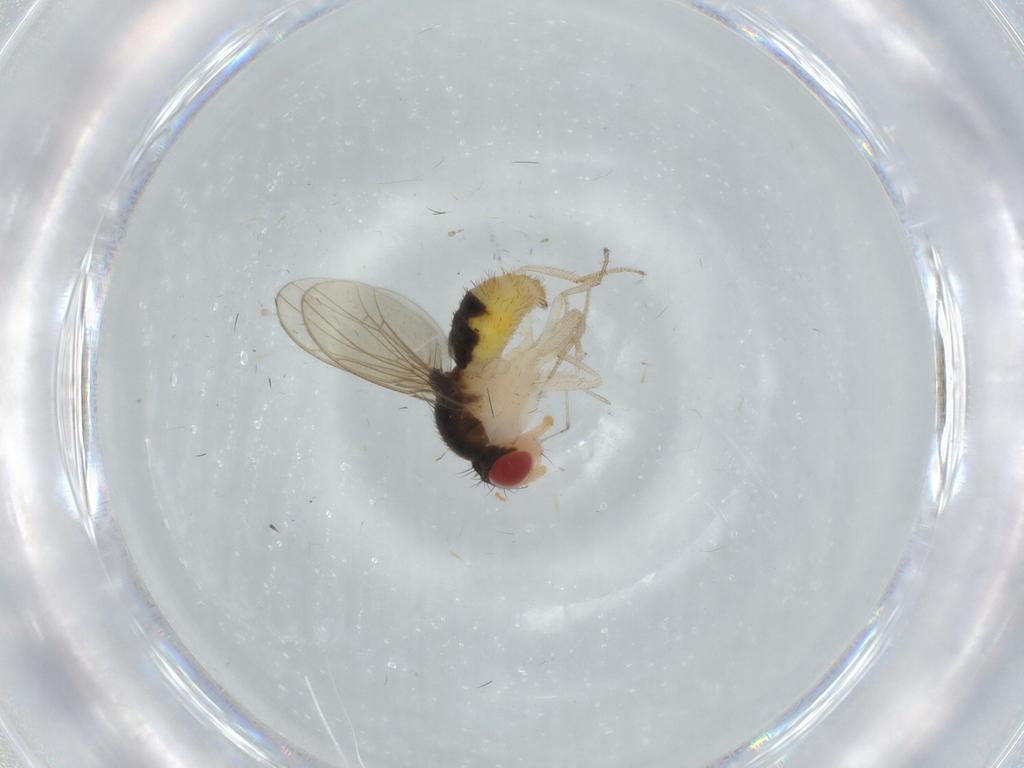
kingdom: Animalia
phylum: Arthropoda
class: Insecta
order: Diptera
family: Drosophilidae
